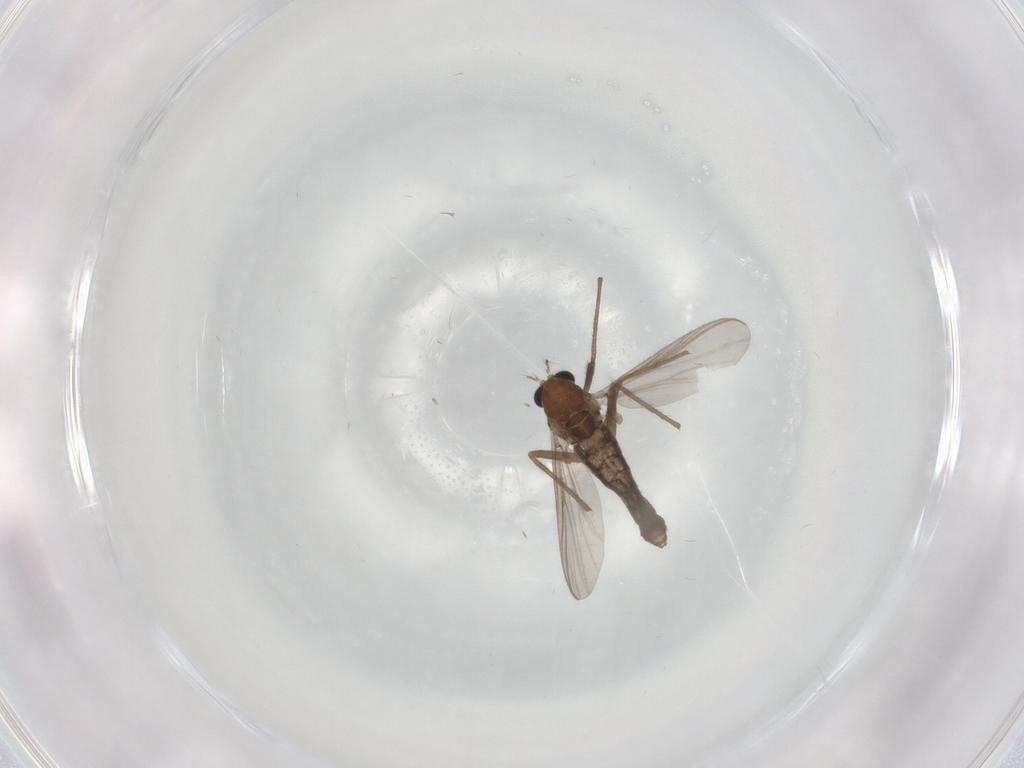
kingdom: Animalia
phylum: Arthropoda
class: Insecta
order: Diptera
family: Chironomidae
